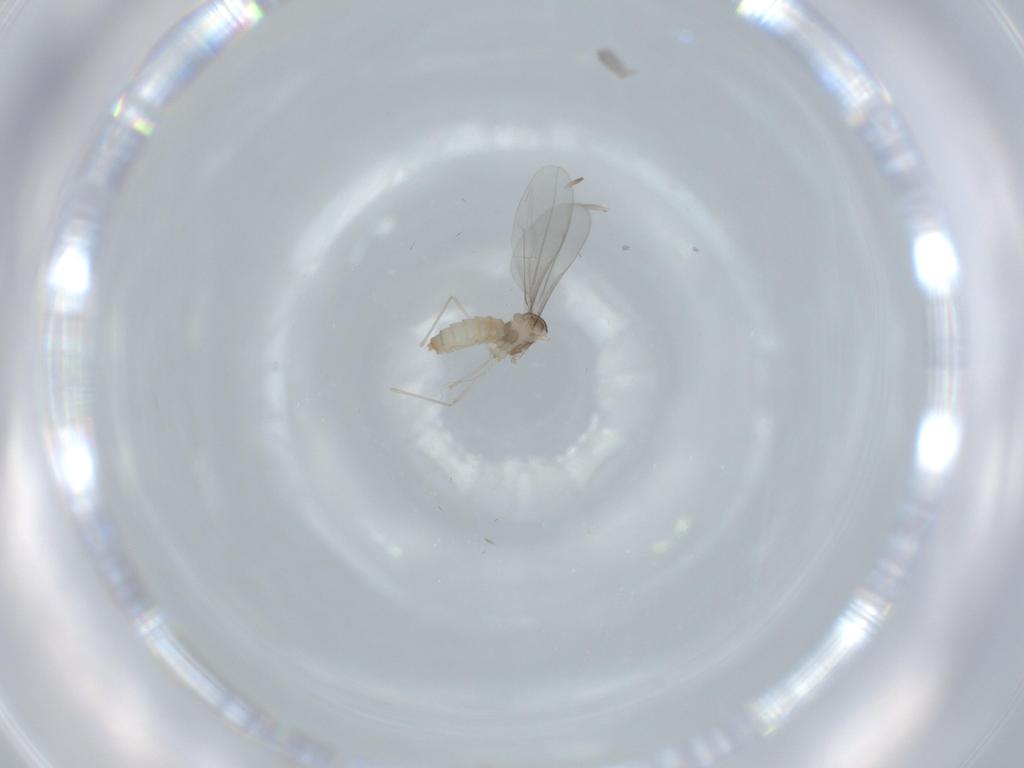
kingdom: Animalia
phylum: Arthropoda
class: Insecta
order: Diptera
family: Cecidomyiidae
